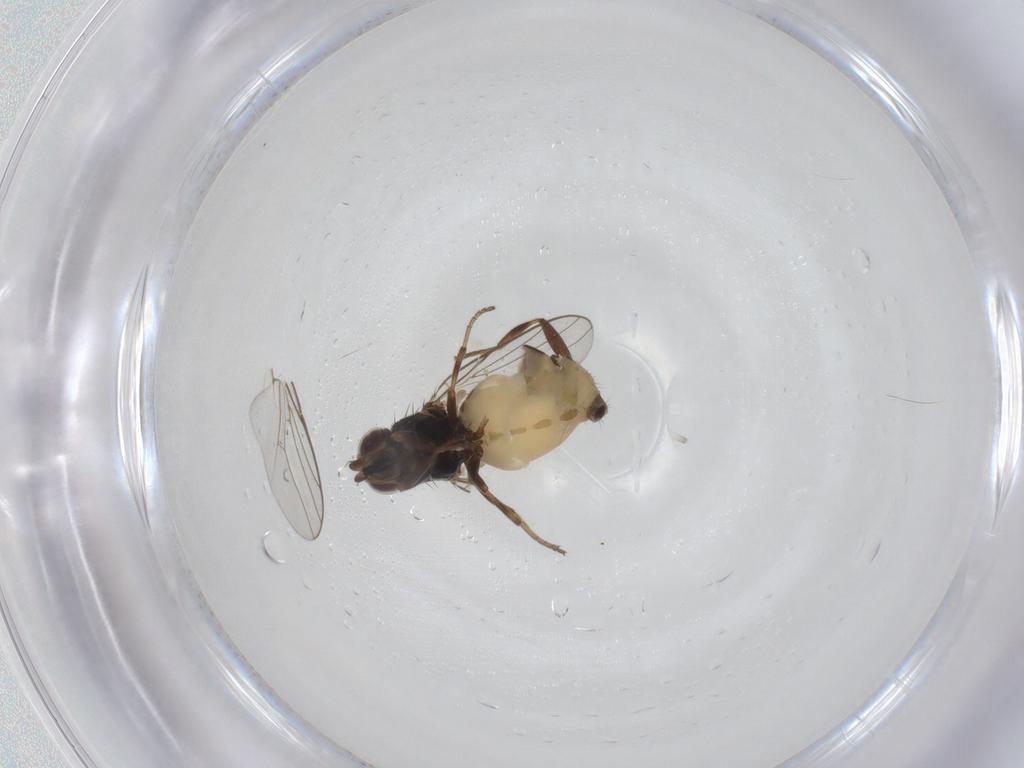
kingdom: Animalia
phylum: Arthropoda
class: Insecta
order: Diptera
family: Chloropidae
